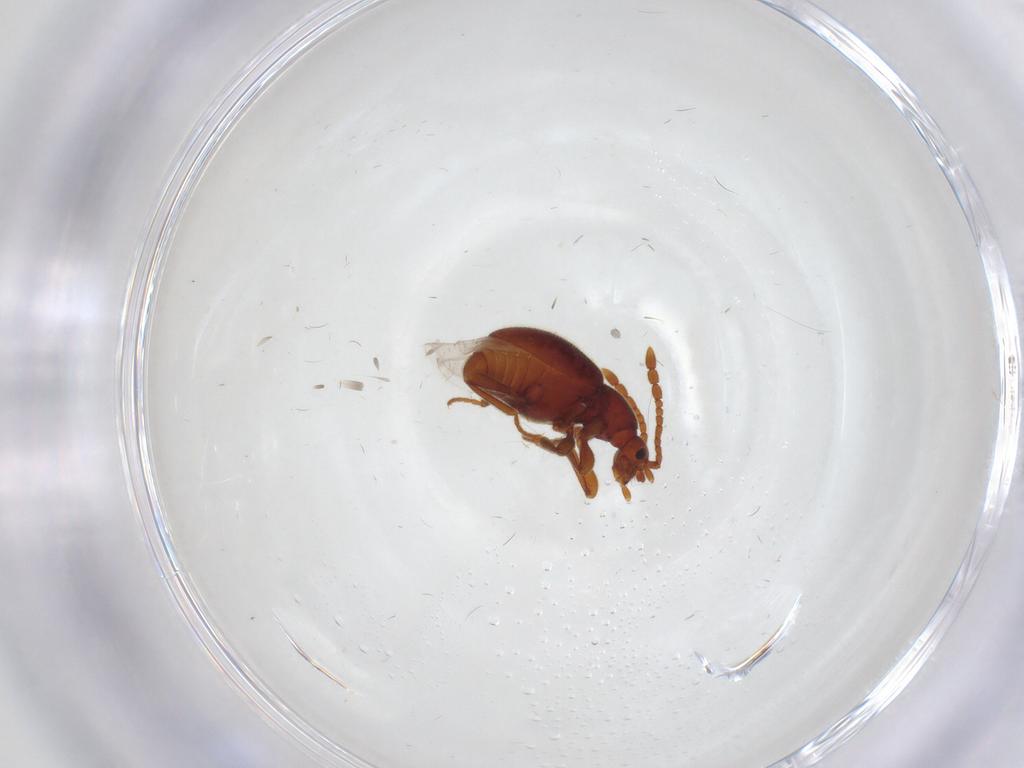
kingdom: Animalia
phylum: Arthropoda
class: Insecta
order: Coleoptera
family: Staphylinidae
